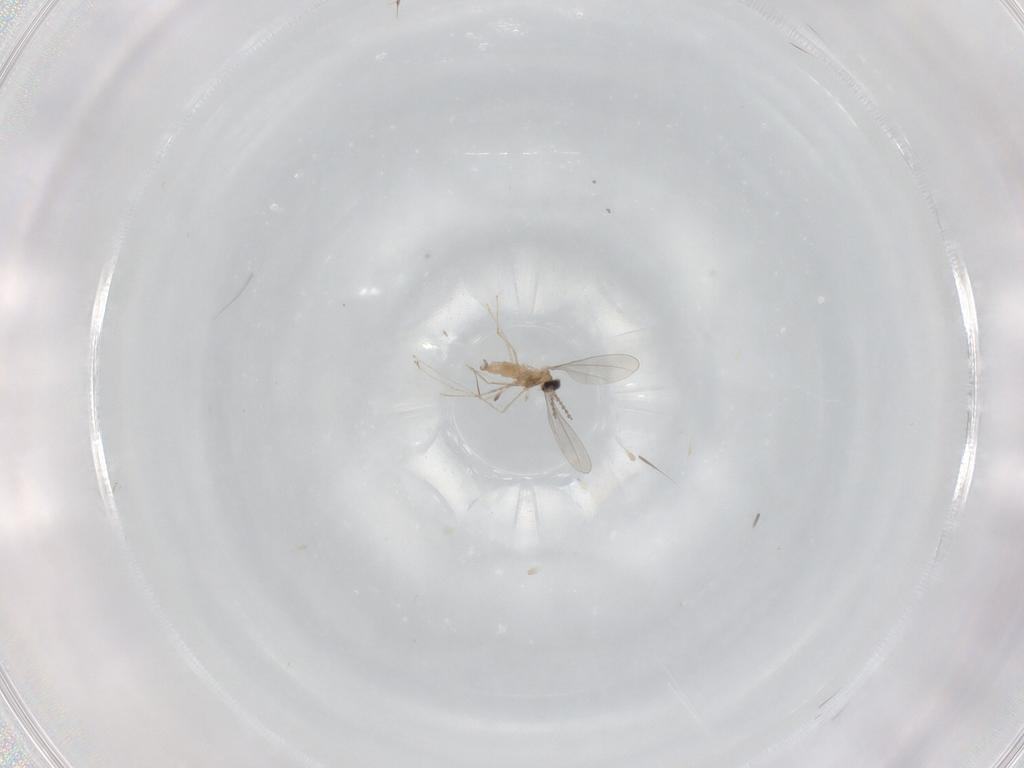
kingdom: Animalia
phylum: Arthropoda
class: Insecta
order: Diptera
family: Cecidomyiidae
